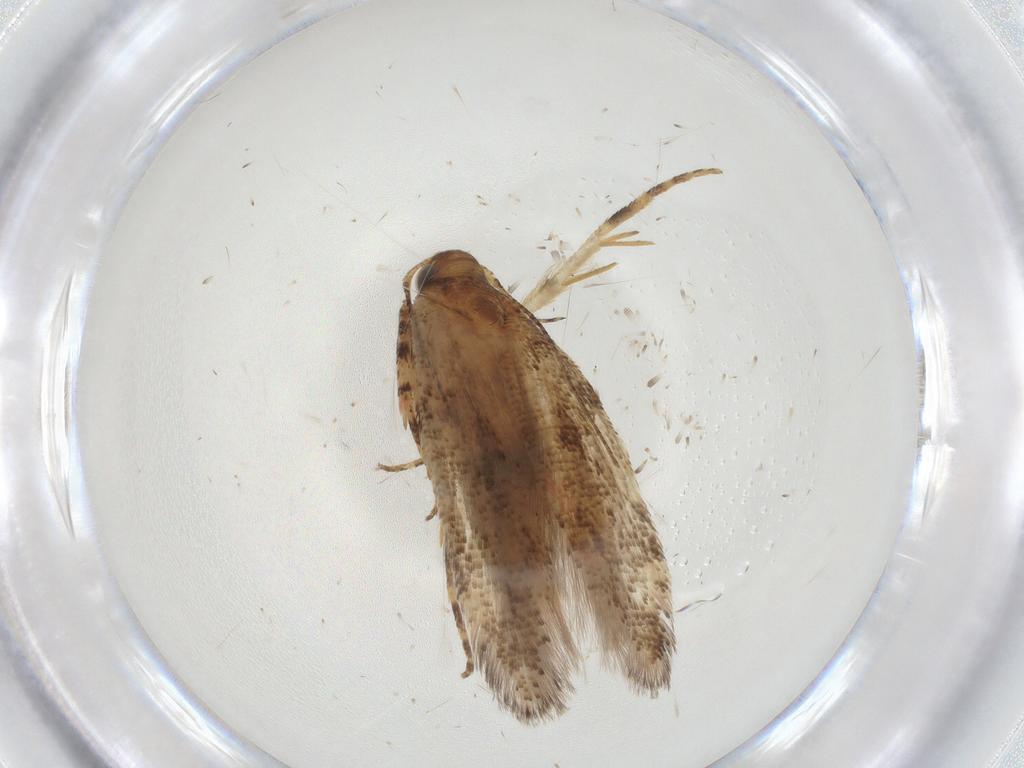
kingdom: Animalia
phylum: Arthropoda
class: Insecta
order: Lepidoptera
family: Gelechiidae
